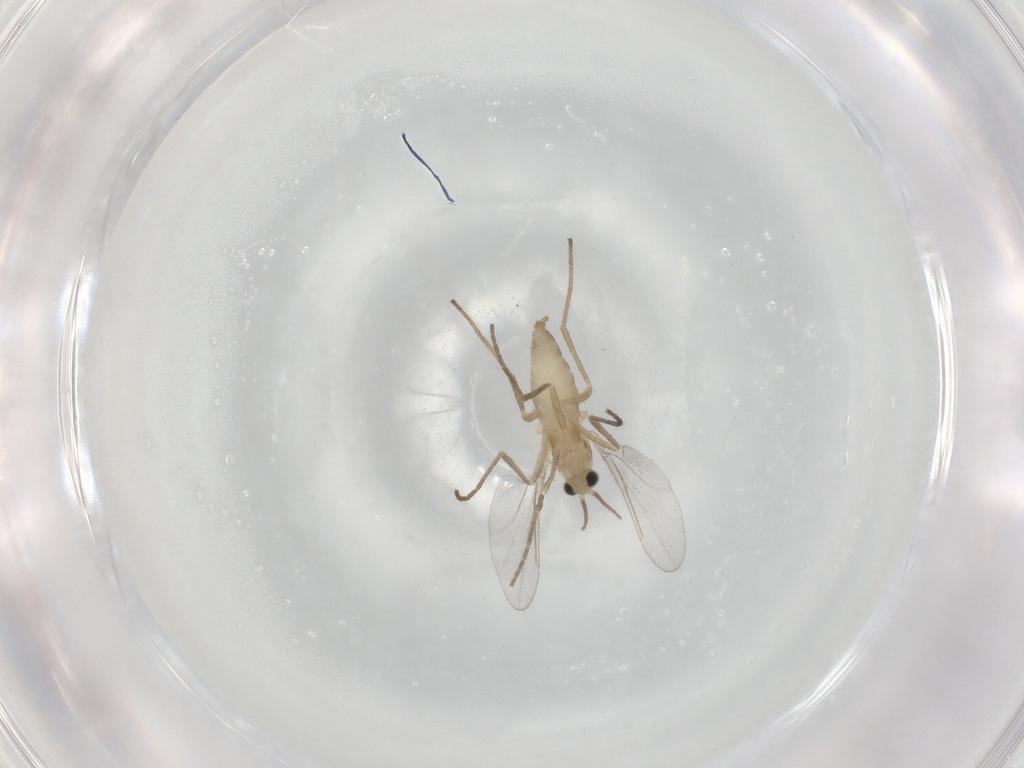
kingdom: Animalia
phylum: Arthropoda
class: Insecta
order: Diptera
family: Cecidomyiidae
